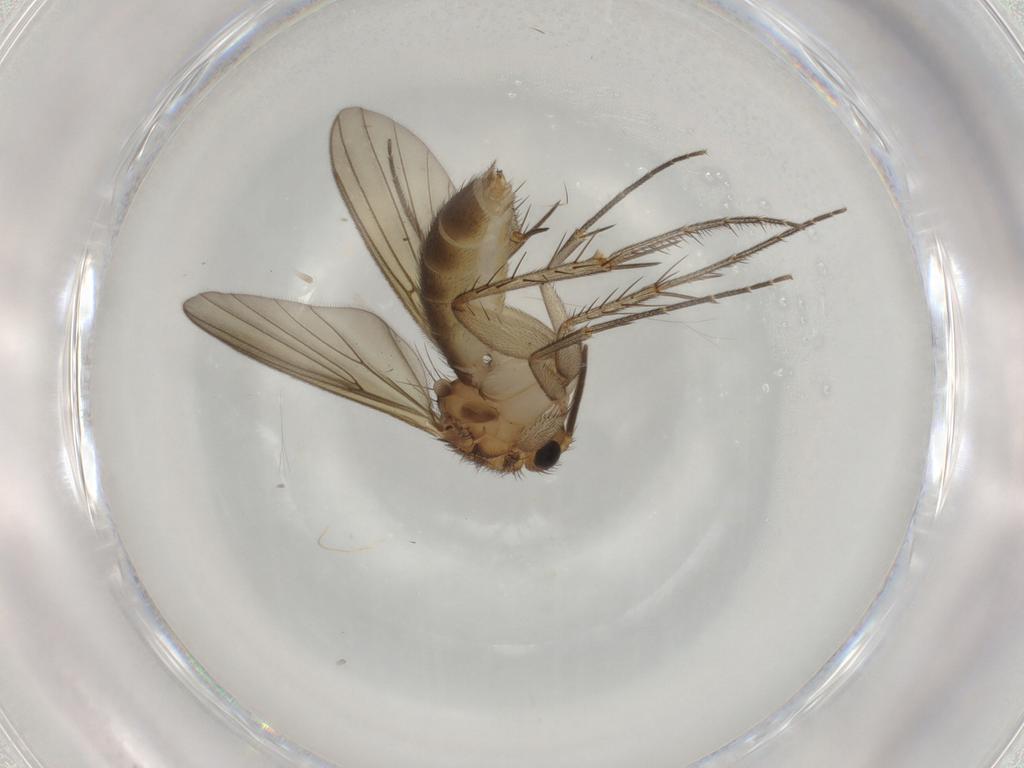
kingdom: Animalia
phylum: Arthropoda
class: Insecta
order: Diptera
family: Mycetophilidae
